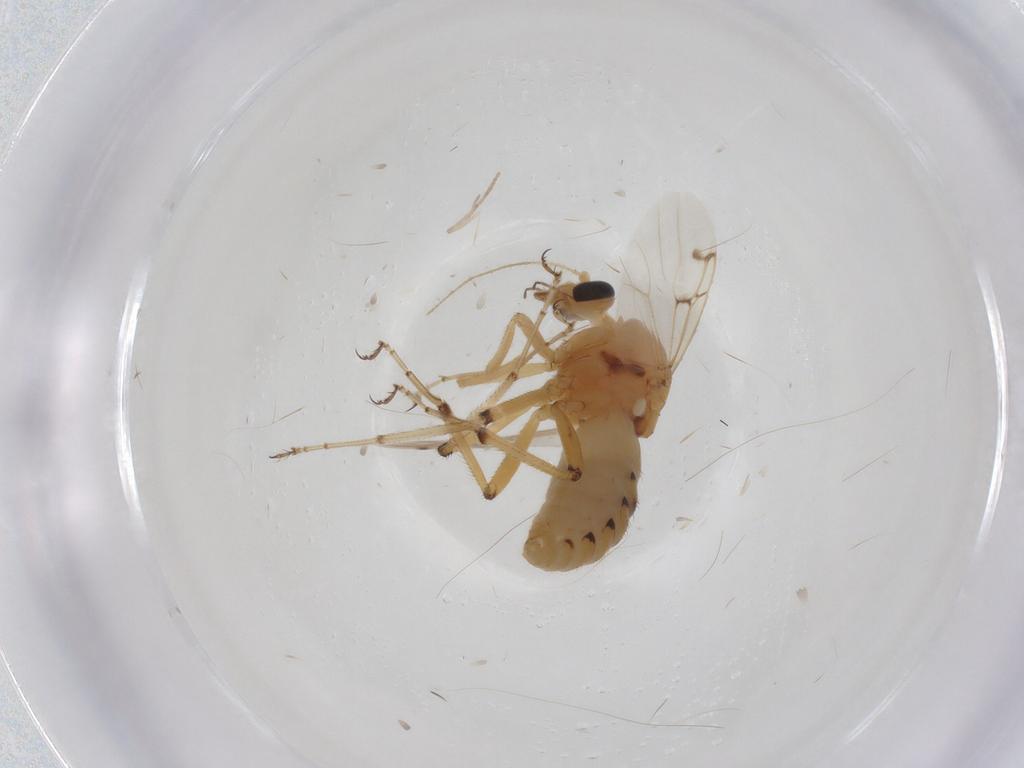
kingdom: Animalia
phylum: Arthropoda
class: Insecta
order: Diptera
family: Ceratopogonidae
